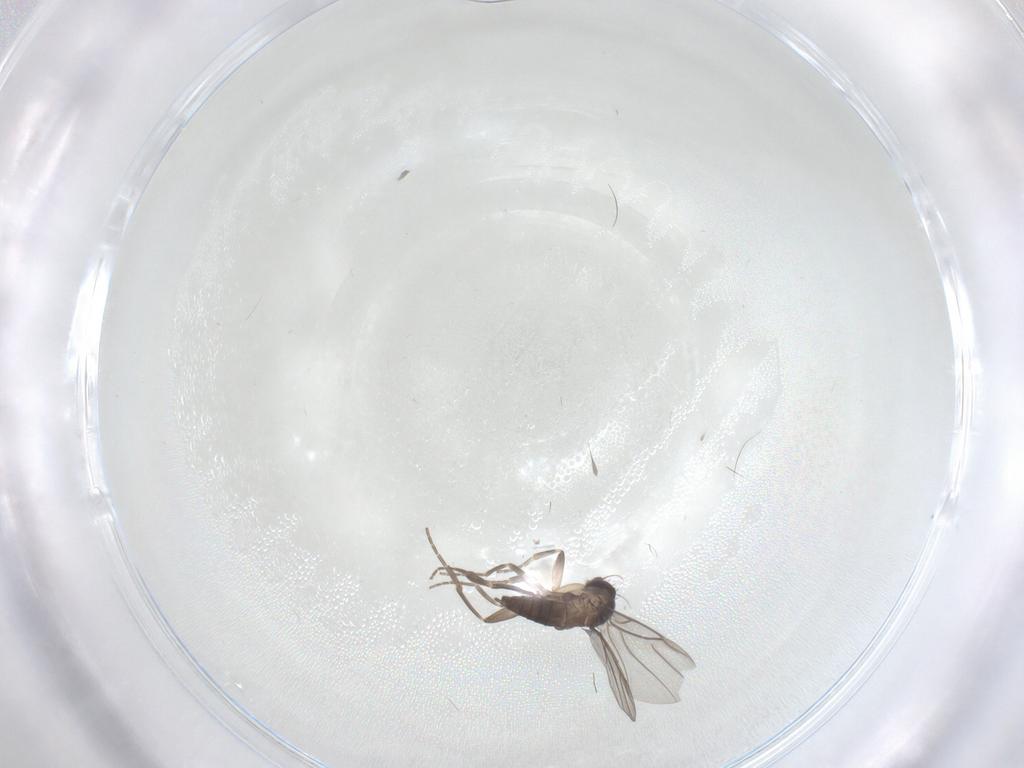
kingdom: Animalia
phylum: Arthropoda
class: Insecta
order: Diptera
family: Phoridae
